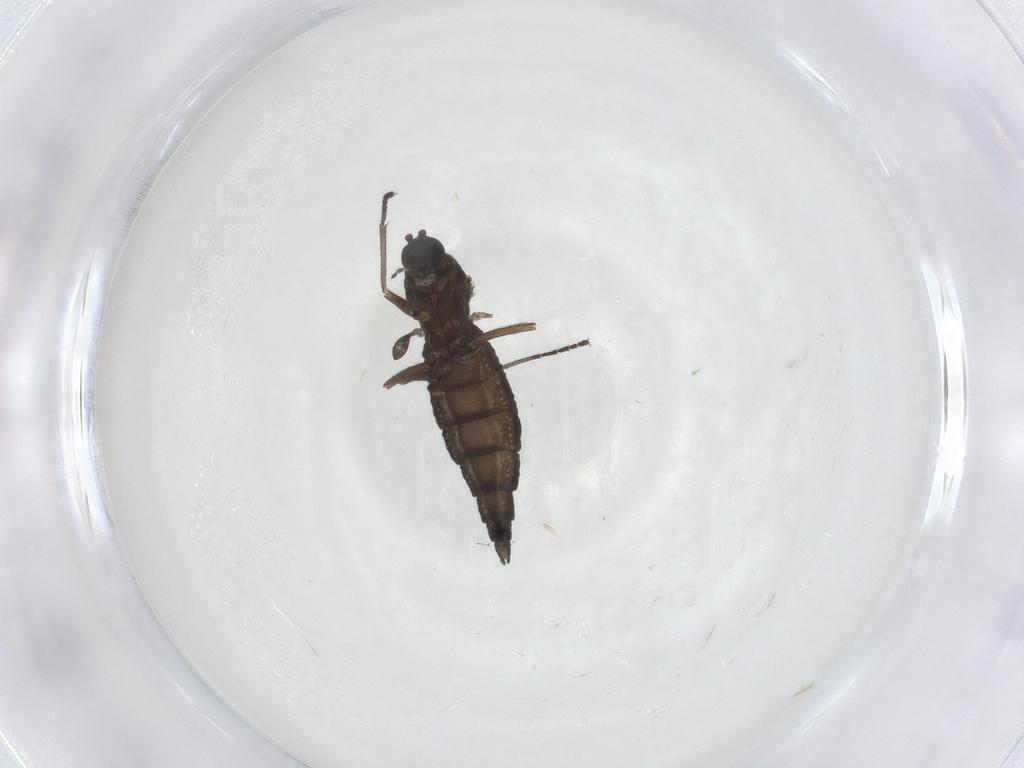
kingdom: Animalia
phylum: Arthropoda
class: Insecta
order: Diptera
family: Sciaridae
